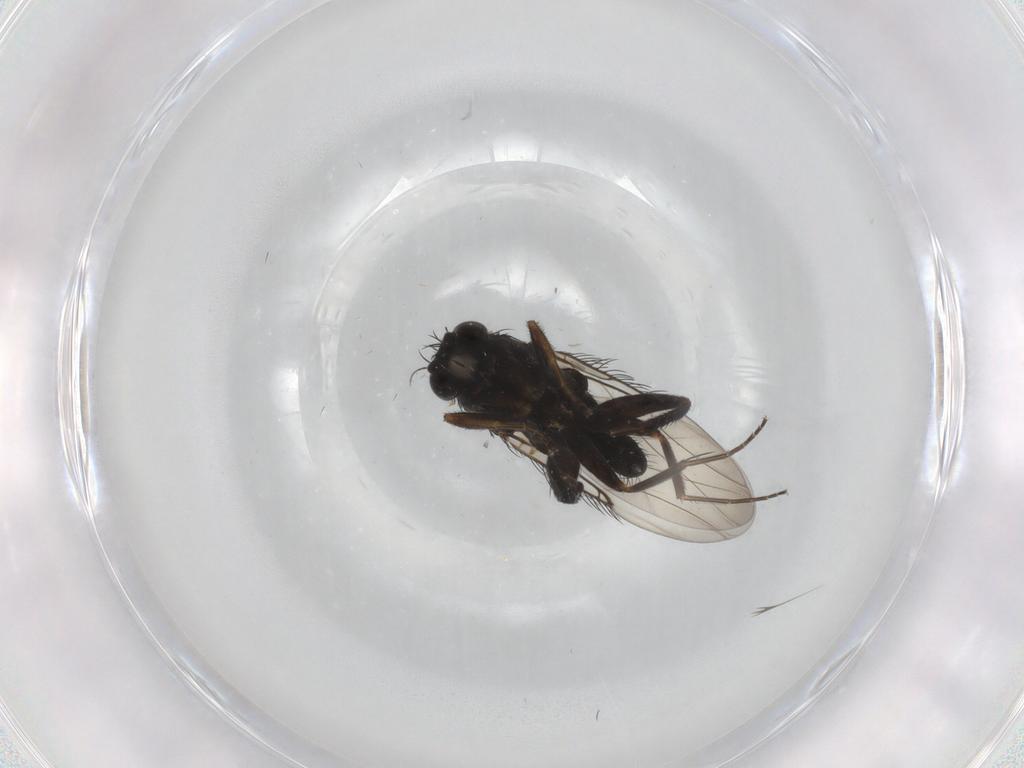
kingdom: Animalia
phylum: Arthropoda
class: Insecta
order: Diptera
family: Phoridae
